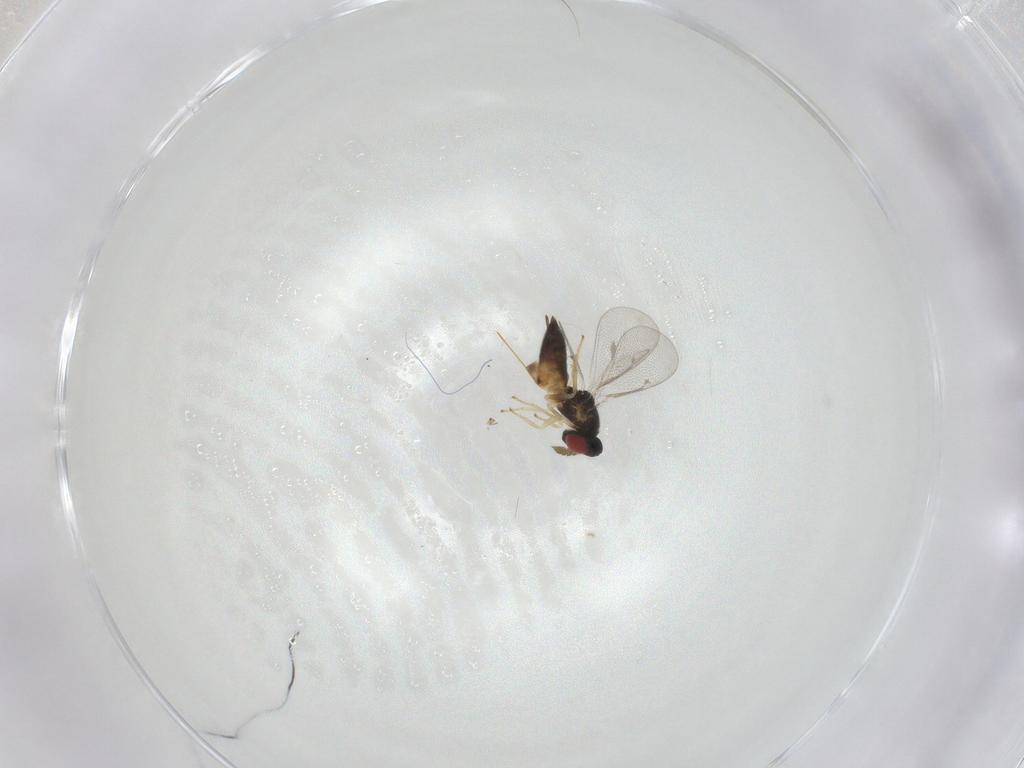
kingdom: Animalia
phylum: Arthropoda
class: Insecta
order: Hymenoptera
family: Eulophidae
